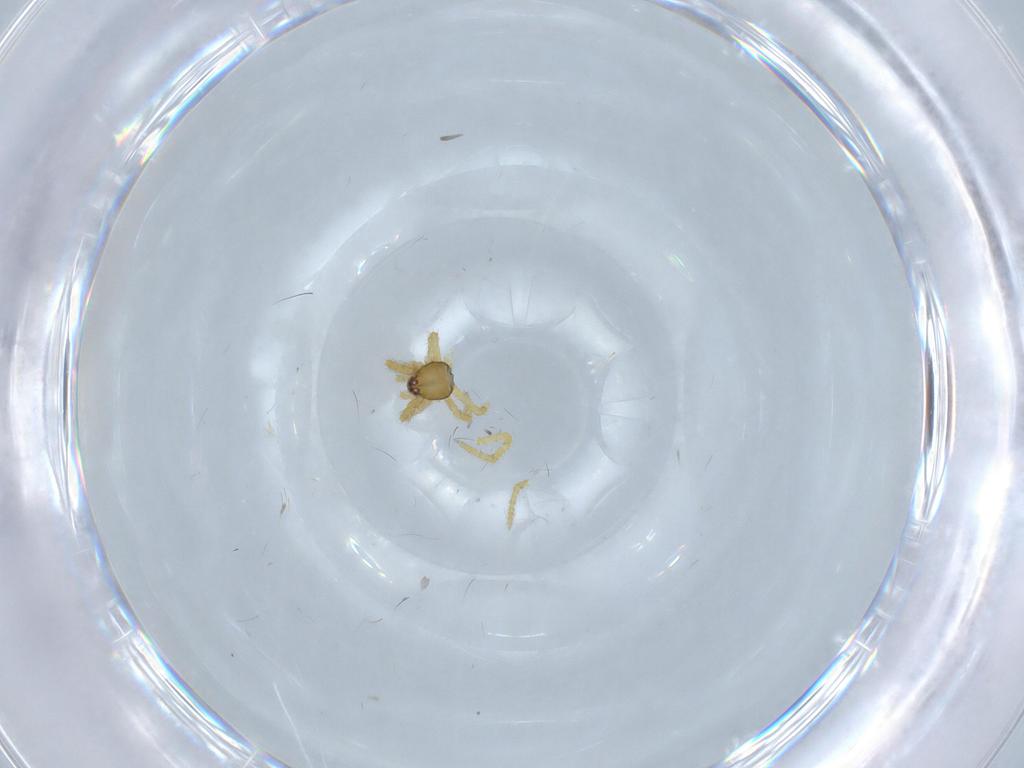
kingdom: Animalia
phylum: Arthropoda
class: Arachnida
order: Araneae
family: Theridiidae
